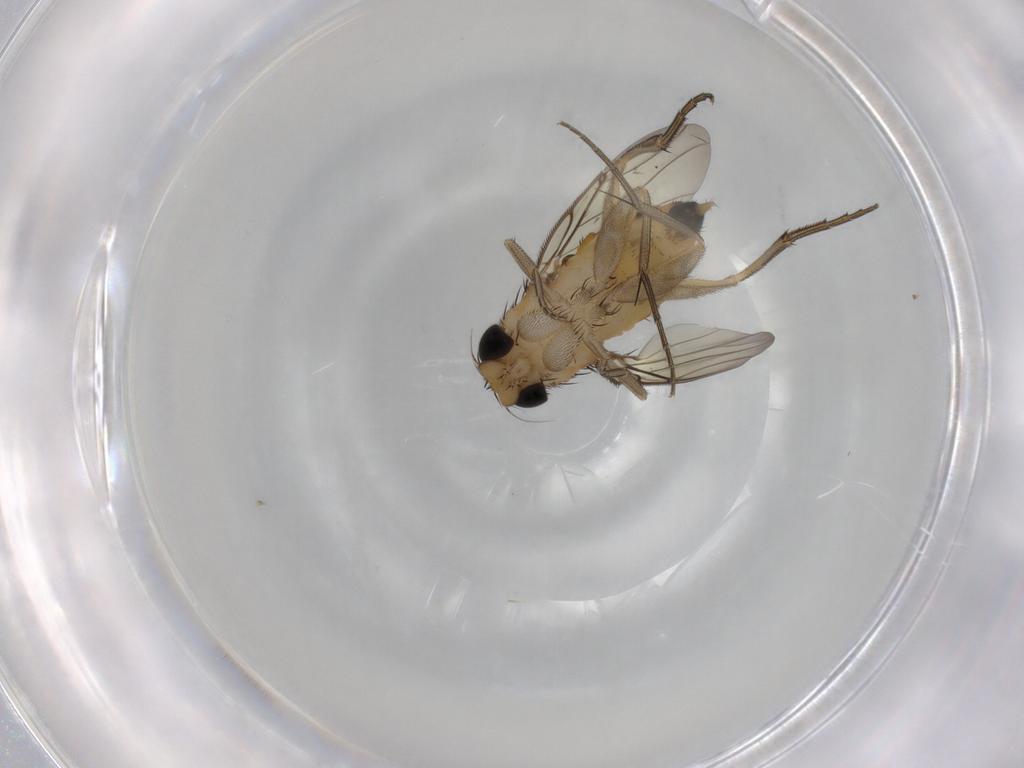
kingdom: Animalia
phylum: Arthropoda
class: Insecta
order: Diptera
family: Phoridae
